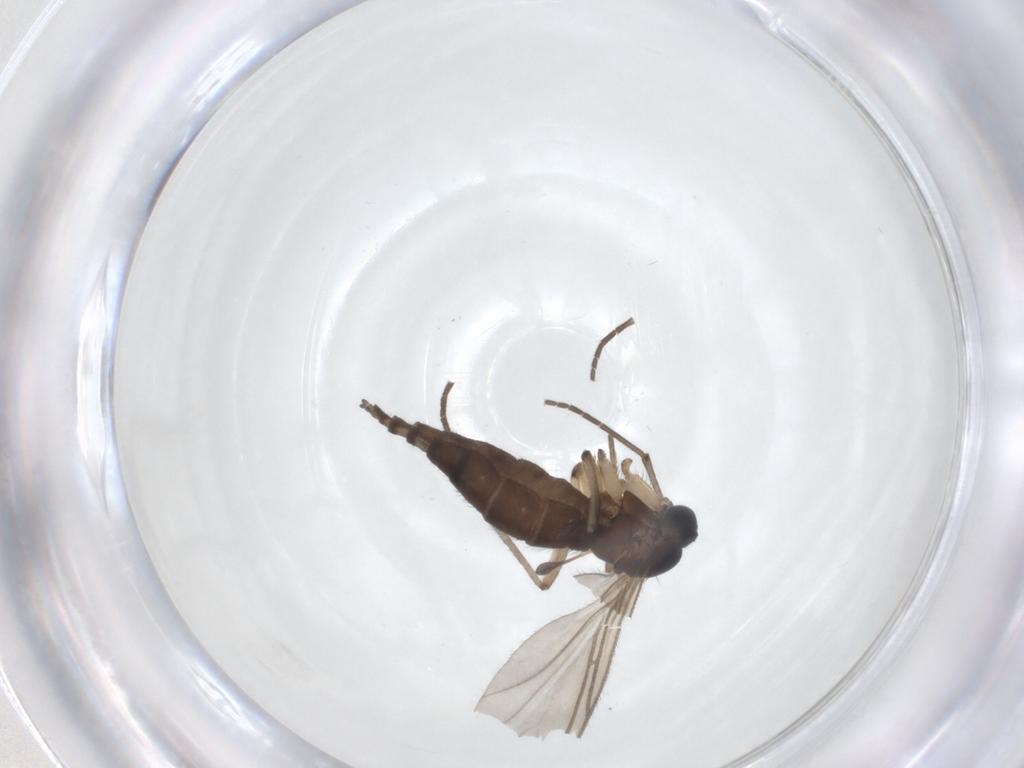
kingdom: Animalia
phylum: Arthropoda
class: Insecta
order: Diptera
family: Sciaridae
